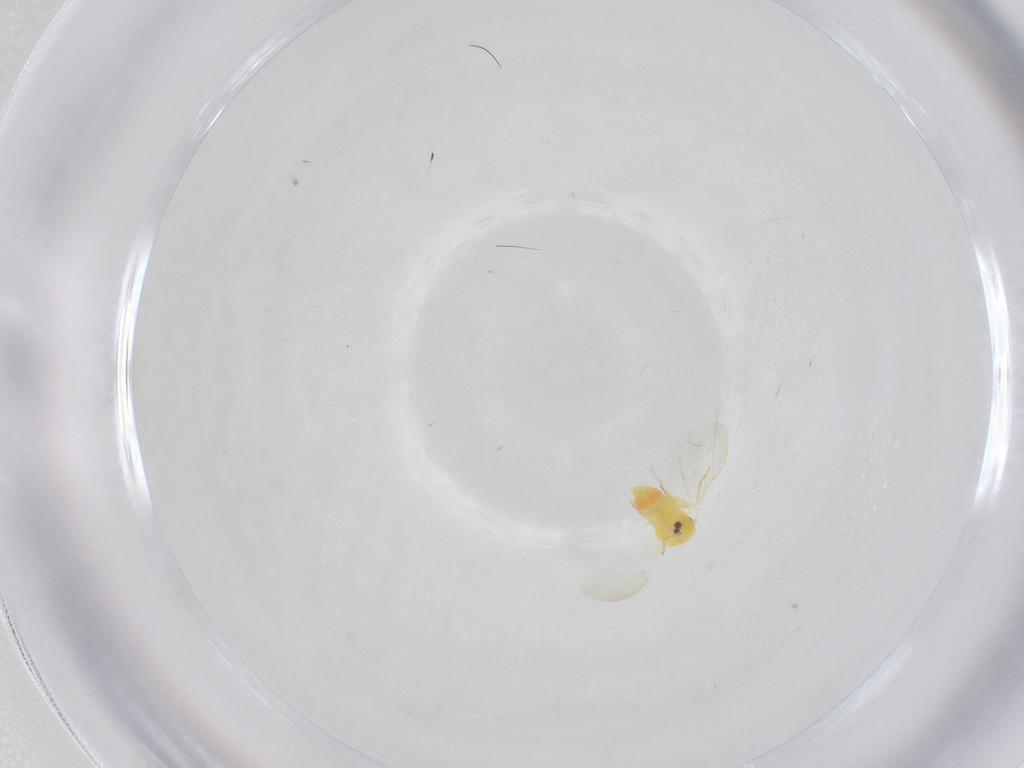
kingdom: Animalia
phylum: Arthropoda
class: Insecta
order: Hemiptera
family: Aleyrodidae
